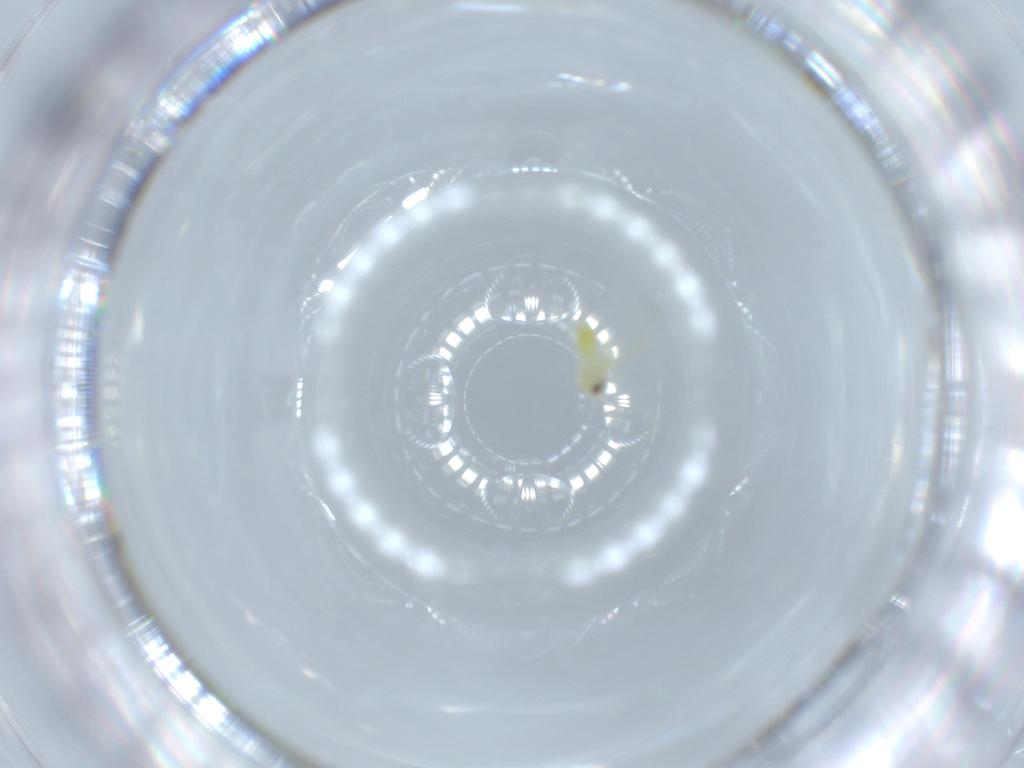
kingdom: Animalia
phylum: Arthropoda
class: Insecta
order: Hemiptera
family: Aleyrodidae
